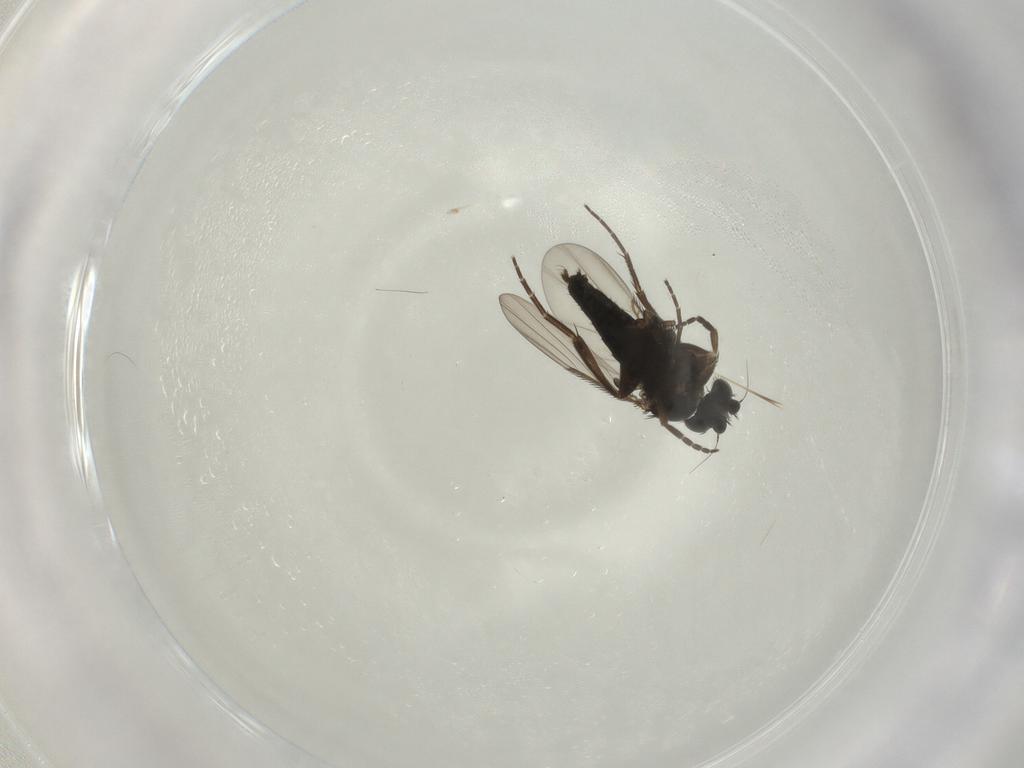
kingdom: Animalia
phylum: Arthropoda
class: Insecta
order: Diptera
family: Phoridae
